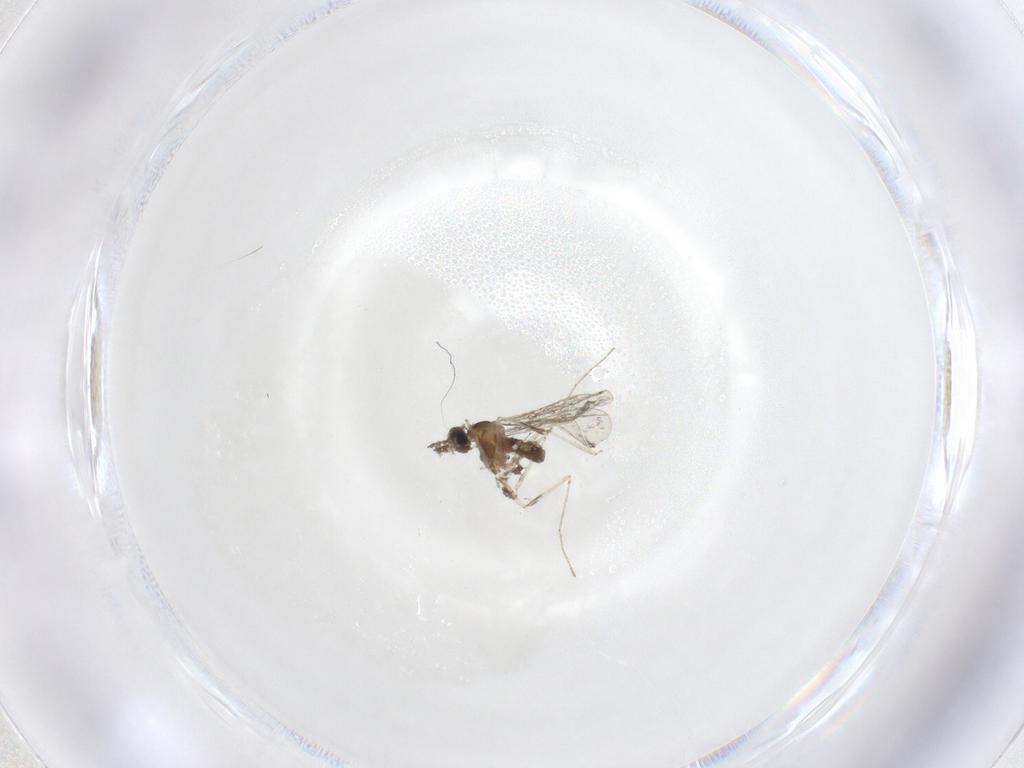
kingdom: Animalia
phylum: Arthropoda
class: Insecta
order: Diptera
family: Cecidomyiidae
